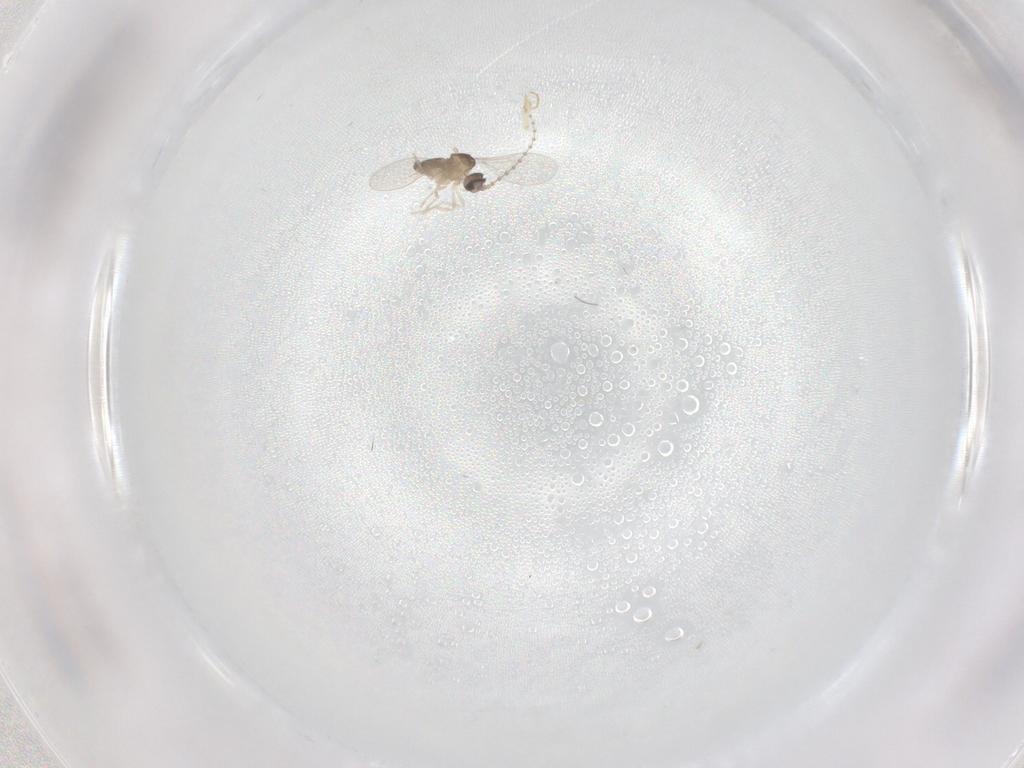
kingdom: Animalia
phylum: Arthropoda
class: Insecta
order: Diptera
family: Cecidomyiidae
